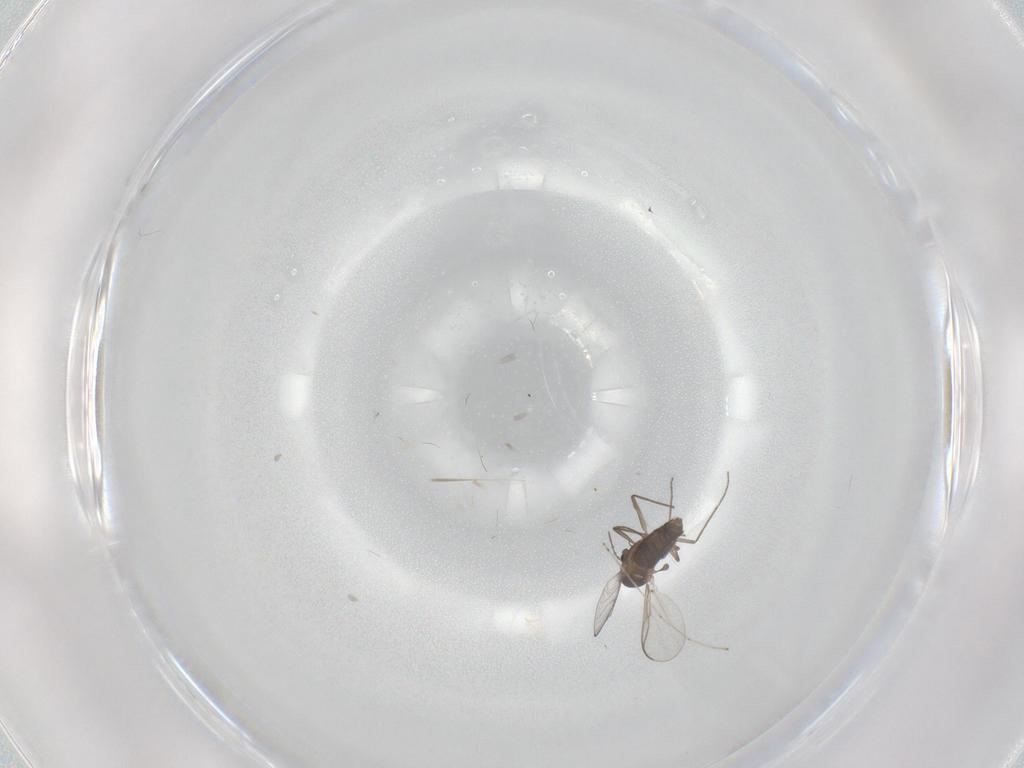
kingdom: Animalia
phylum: Arthropoda
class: Insecta
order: Diptera
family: Chironomidae
